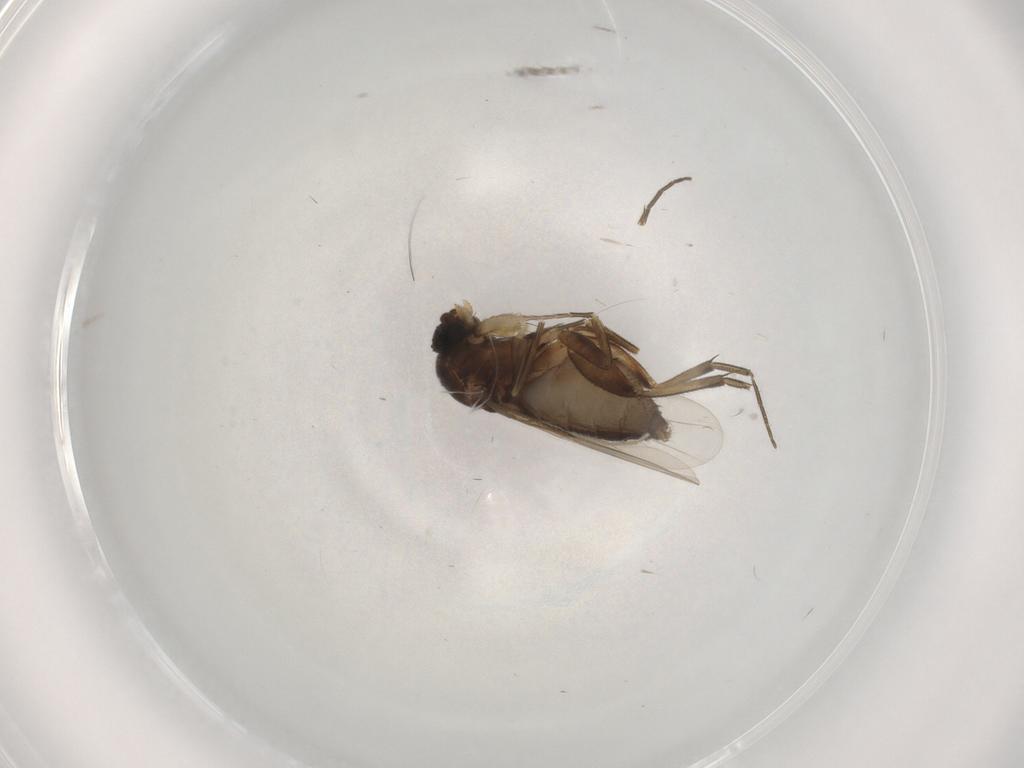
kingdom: Animalia
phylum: Arthropoda
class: Insecta
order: Diptera
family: Phoridae
